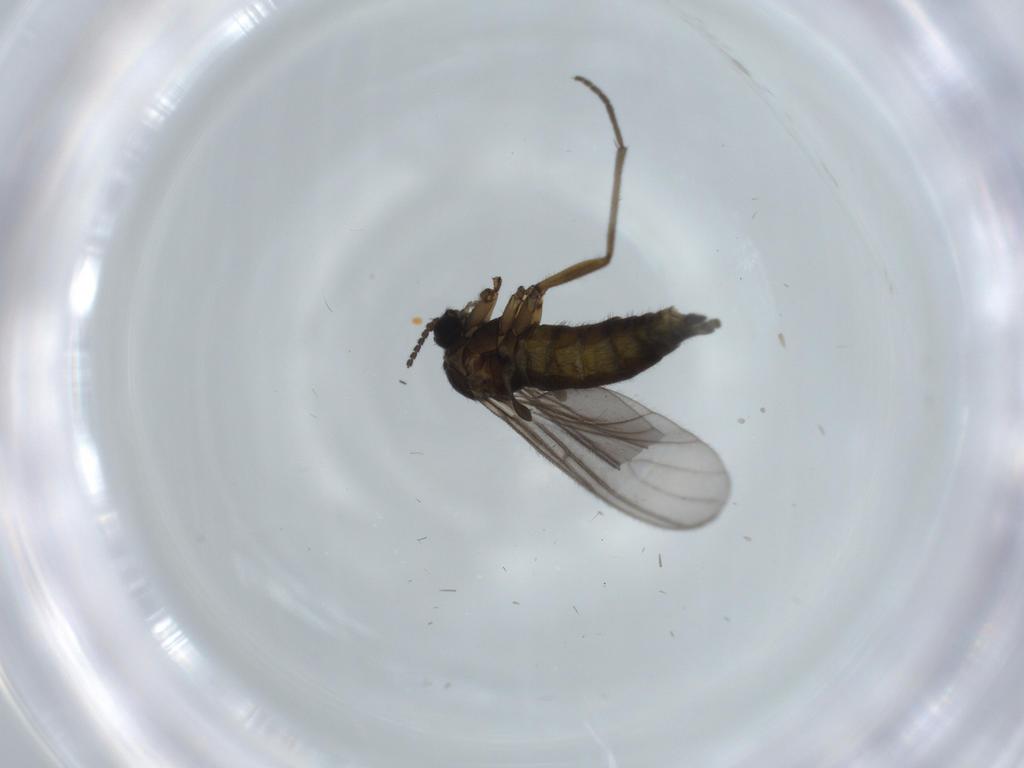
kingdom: Animalia
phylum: Arthropoda
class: Insecta
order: Diptera
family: Sciaridae
